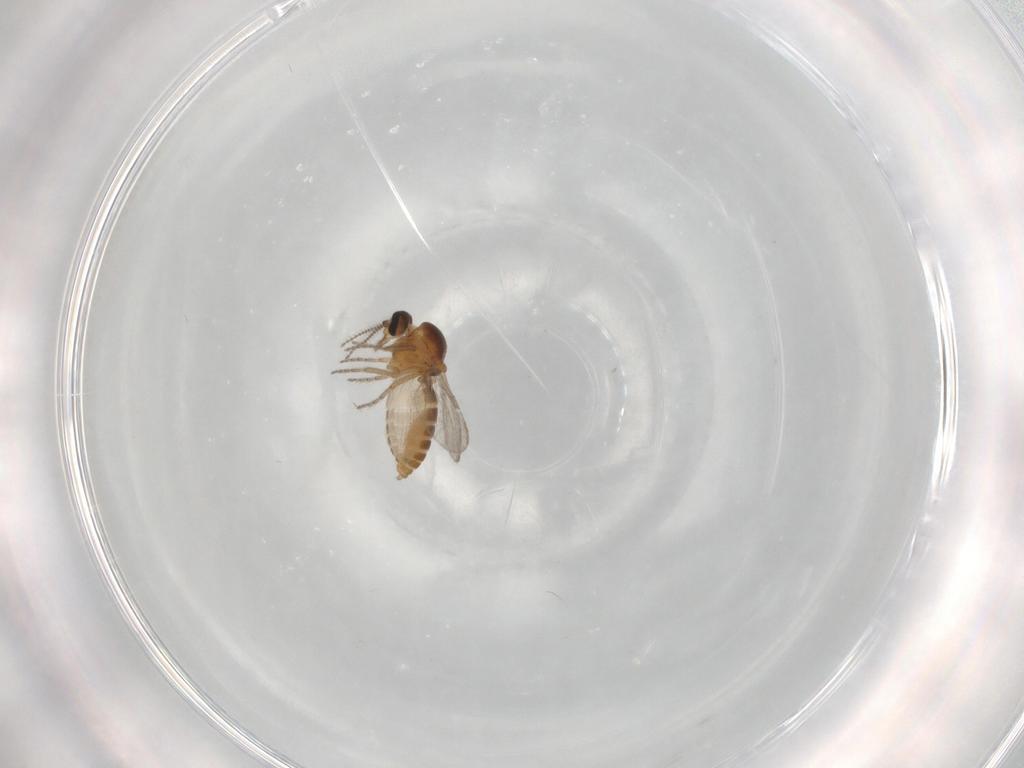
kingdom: Animalia
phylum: Arthropoda
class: Insecta
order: Diptera
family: Ceratopogonidae
